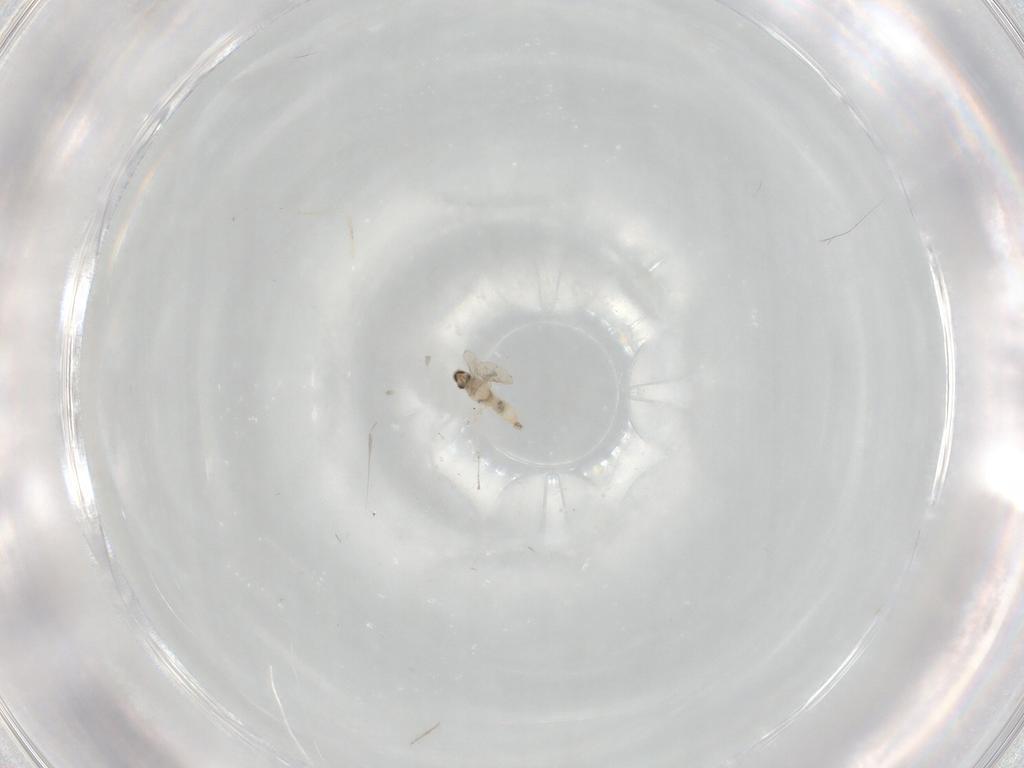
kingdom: Animalia
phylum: Arthropoda
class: Insecta
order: Diptera
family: Cecidomyiidae
